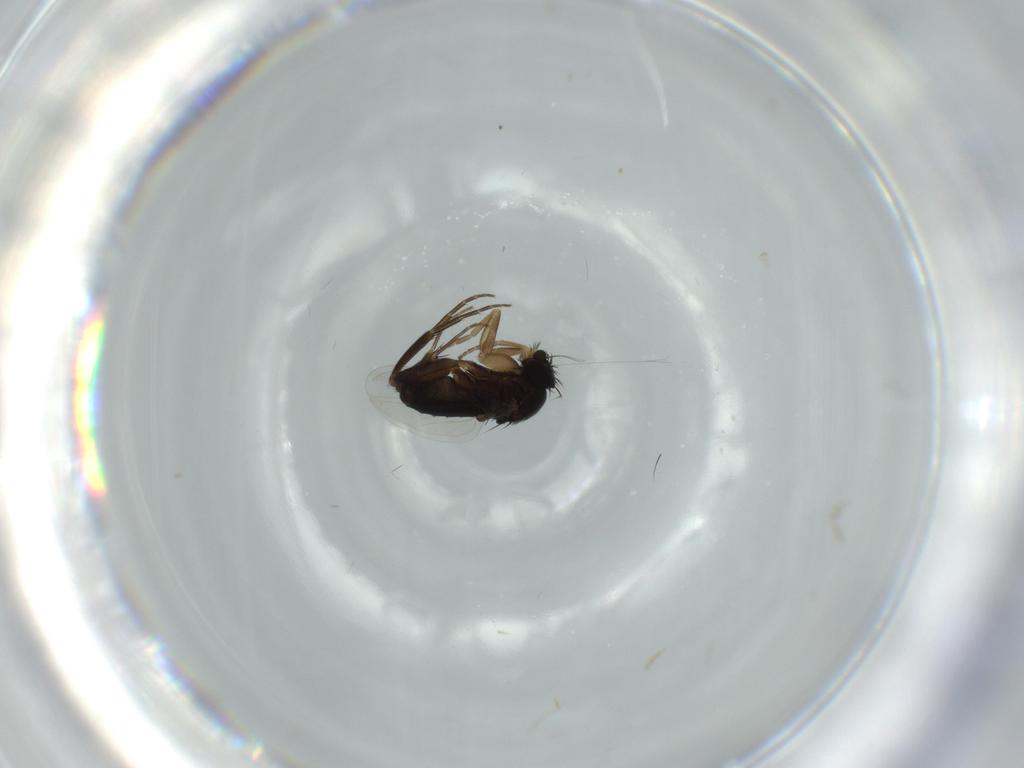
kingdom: Animalia
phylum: Arthropoda
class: Insecta
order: Diptera
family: Phoridae
